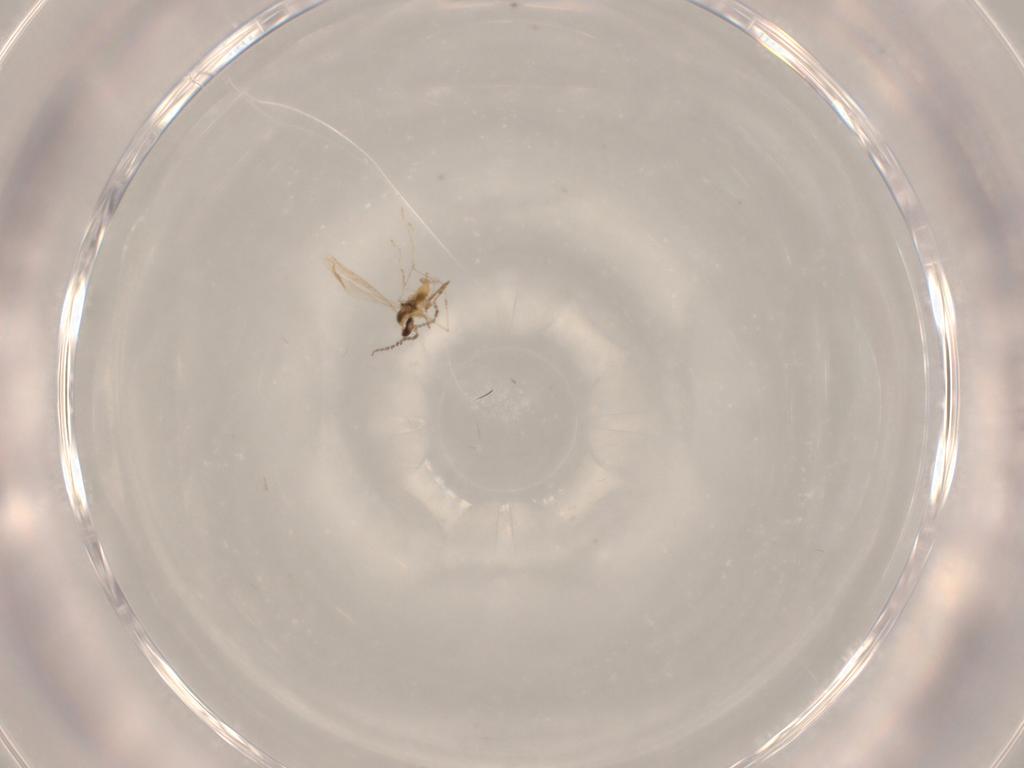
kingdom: Animalia
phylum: Arthropoda
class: Insecta
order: Diptera
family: Cecidomyiidae
